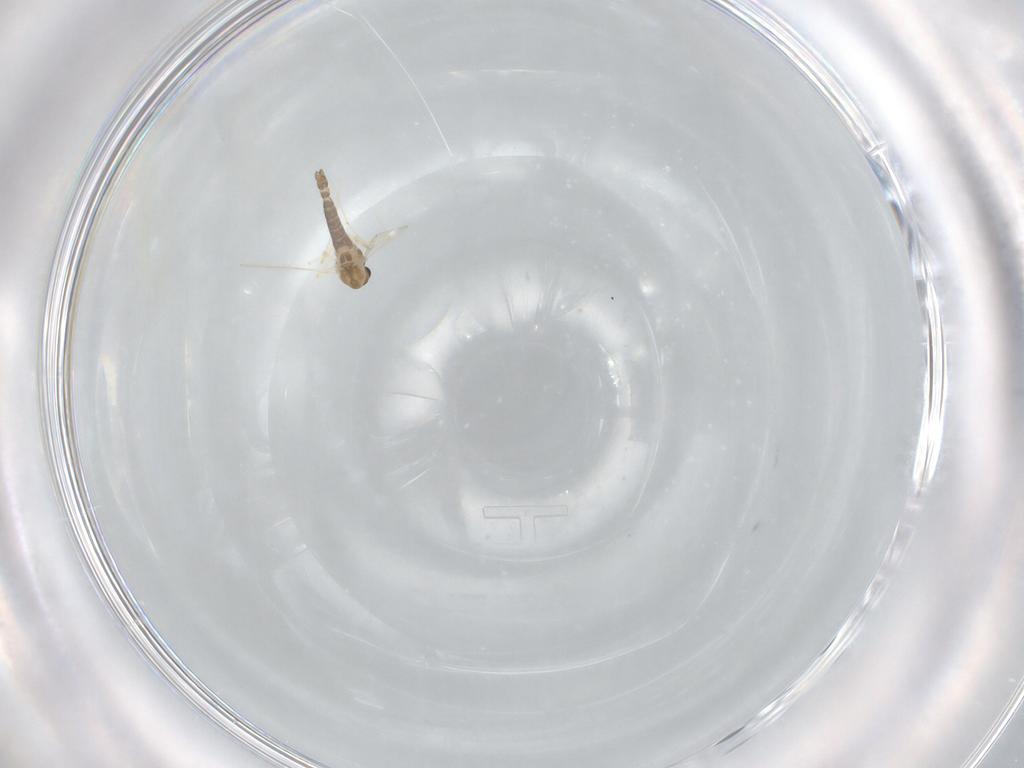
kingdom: Animalia
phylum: Arthropoda
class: Insecta
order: Diptera
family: Chironomidae
